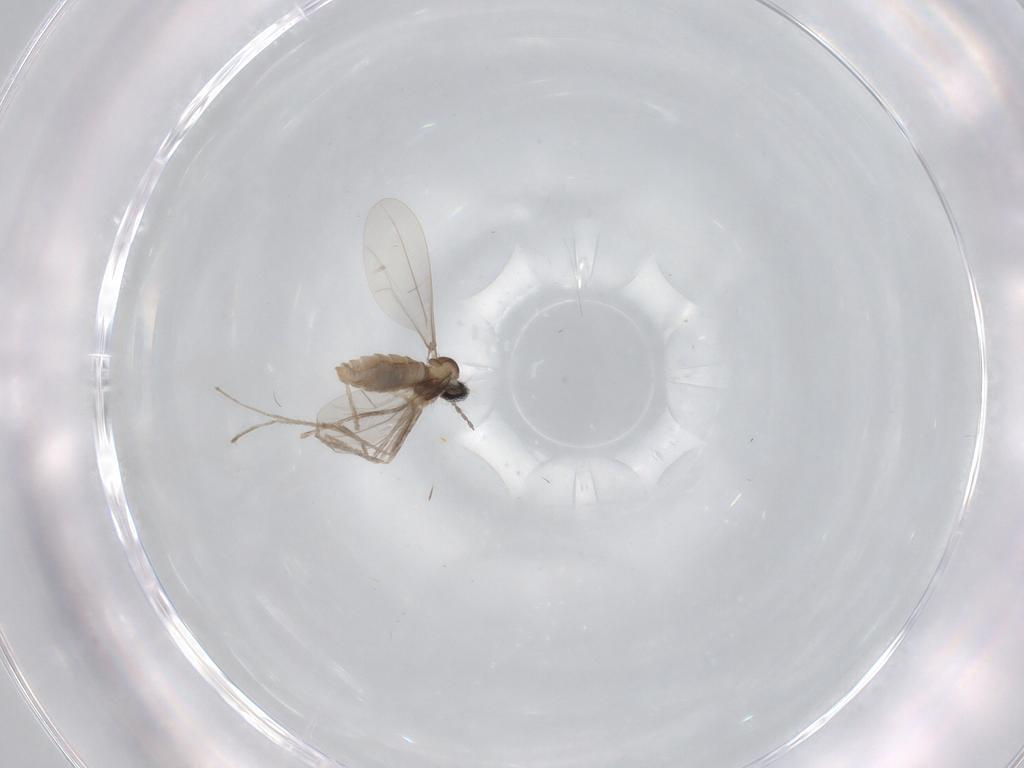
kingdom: Animalia
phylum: Arthropoda
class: Insecta
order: Diptera
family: Cecidomyiidae
